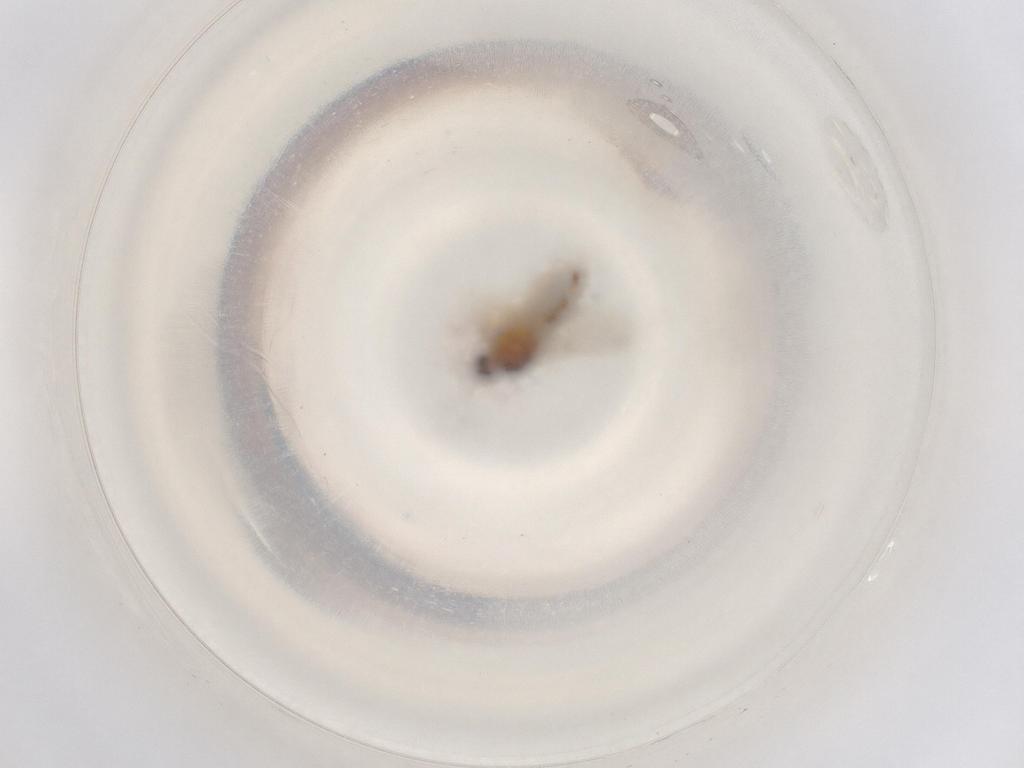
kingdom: Animalia
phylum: Arthropoda
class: Insecta
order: Diptera
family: Ceratopogonidae
